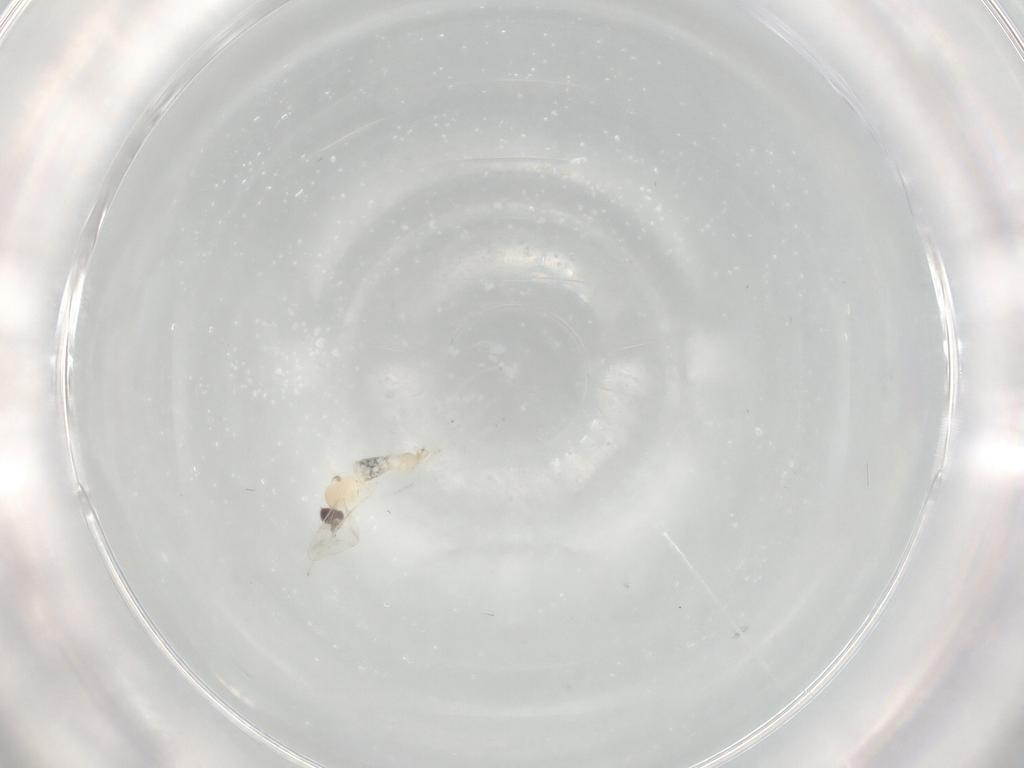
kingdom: Animalia
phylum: Arthropoda
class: Insecta
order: Diptera
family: Cecidomyiidae
